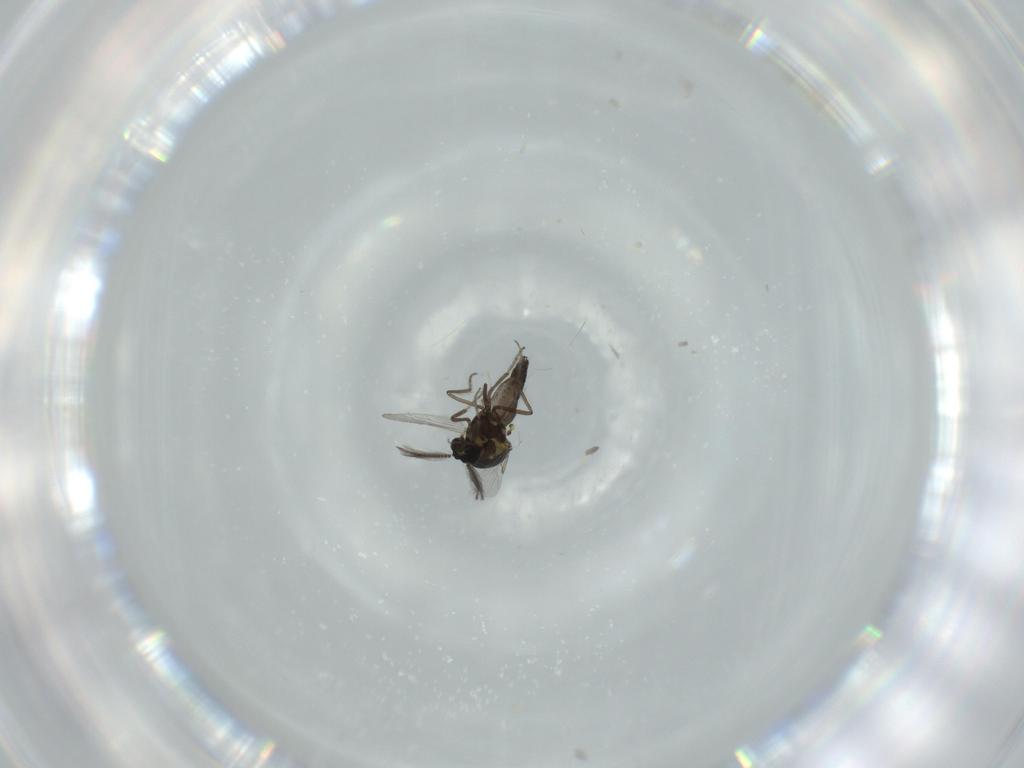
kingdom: Animalia
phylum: Arthropoda
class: Insecta
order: Diptera
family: Ceratopogonidae
